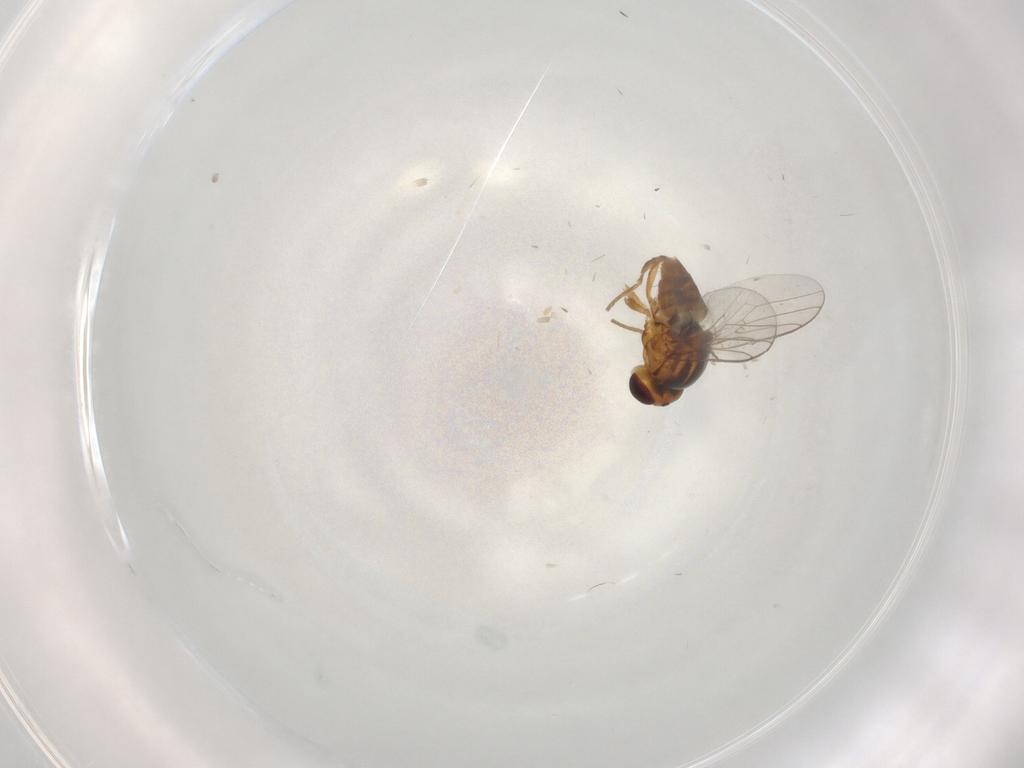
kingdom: Animalia
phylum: Arthropoda
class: Insecta
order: Diptera
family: Chloropidae
